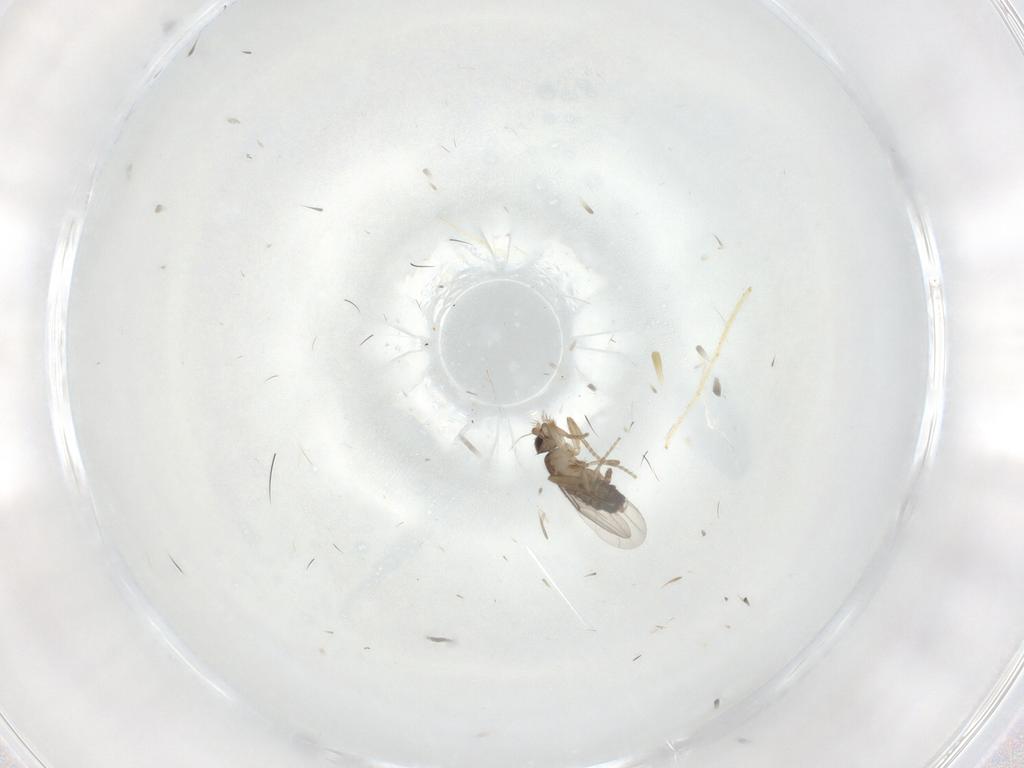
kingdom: Animalia
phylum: Arthropoda
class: Insecta
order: Diptera
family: Chironomidae
